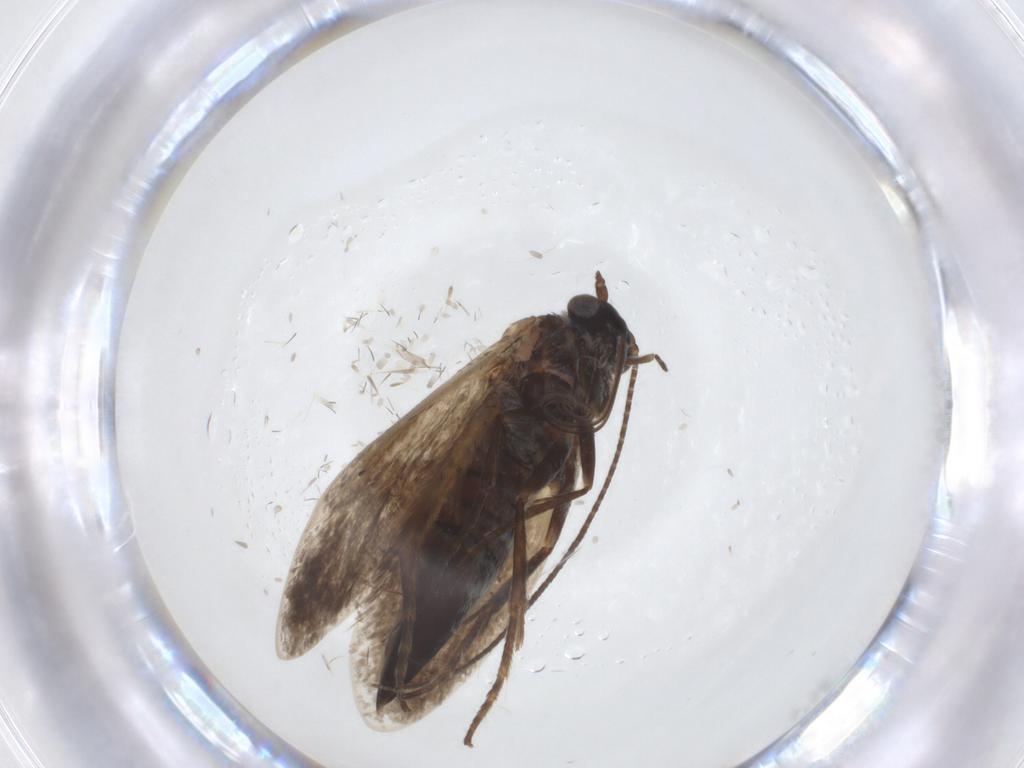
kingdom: Animalia
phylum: Arthropoda
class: Insecta
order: Lepidoptera
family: Adelidae
